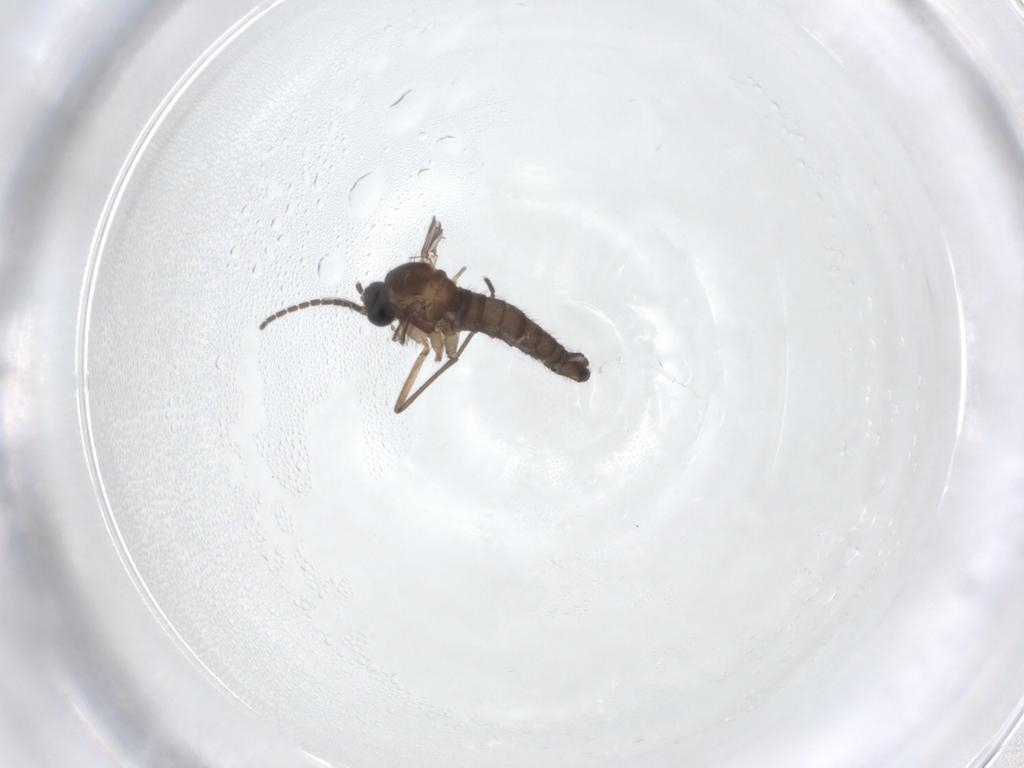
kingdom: Animalia
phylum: Arthropoda
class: Insecta
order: Diptera
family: Sciaridae
